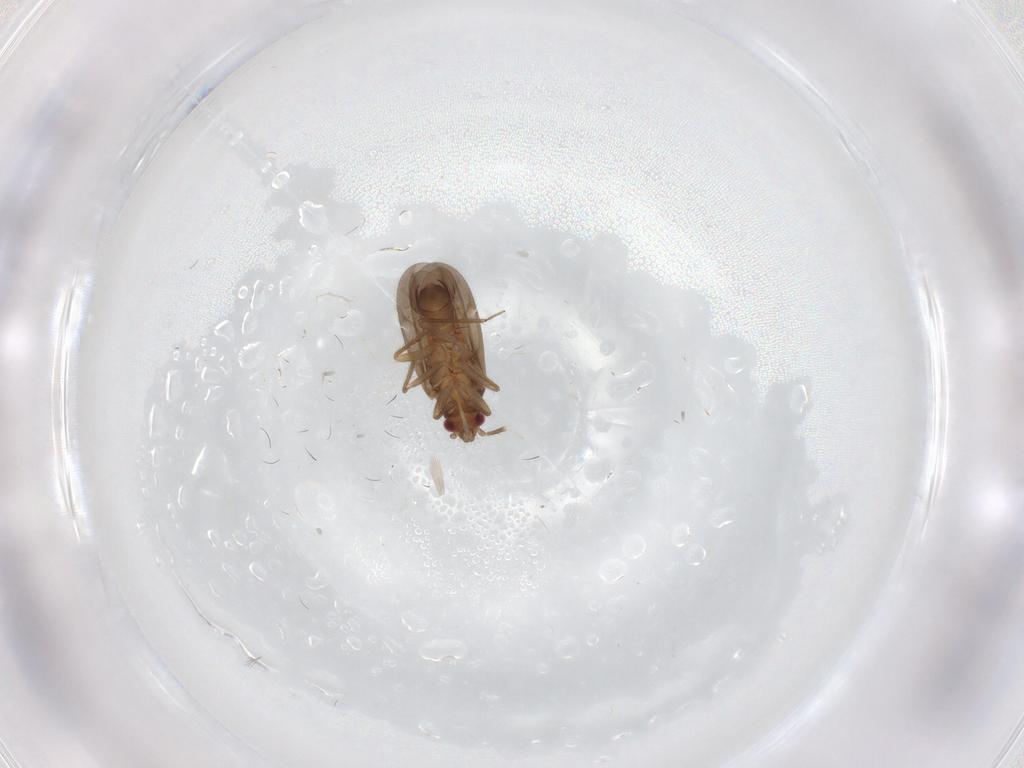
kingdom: Animalia
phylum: Arthropoda
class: Insecta
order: Hemiptera
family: Ceratocombidae
